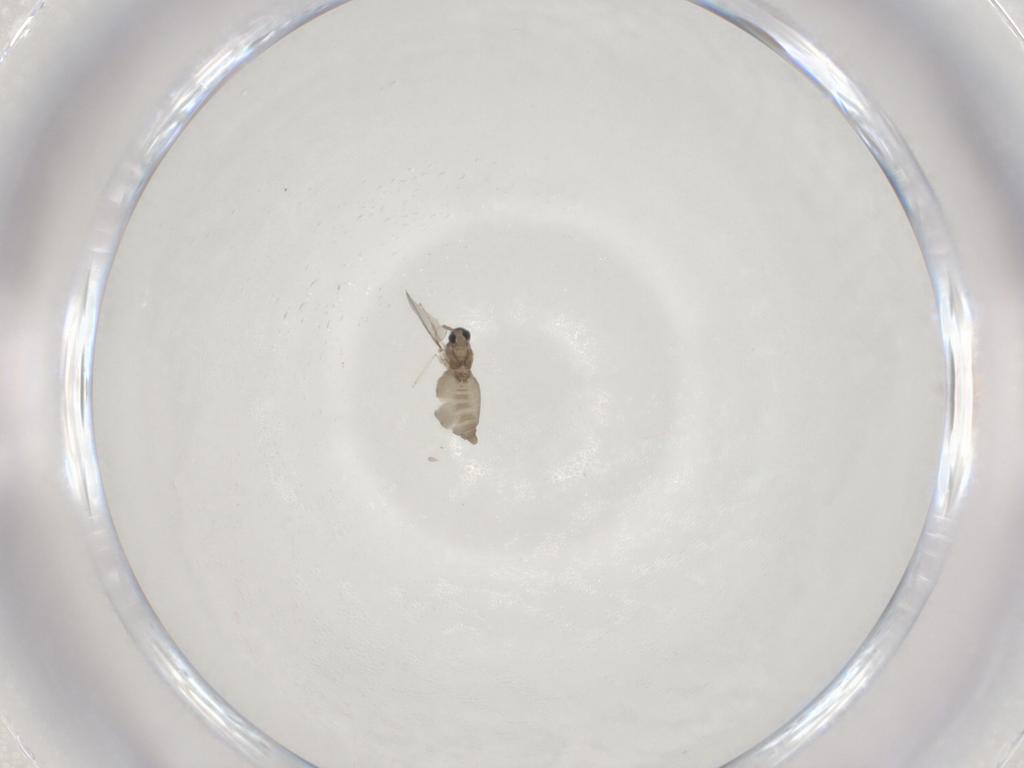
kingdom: Animalia
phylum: Arthropoda
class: Insecta
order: Diptera
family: Cecidomyiidae
